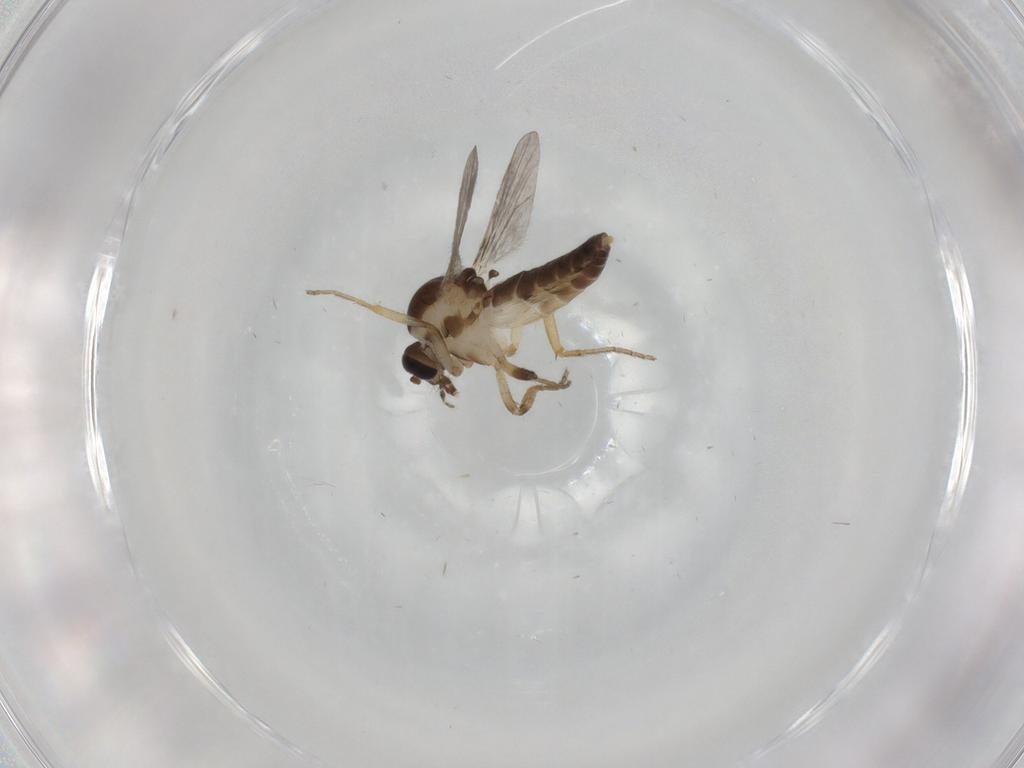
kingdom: Animalia
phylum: Arthropoda
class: Insecta
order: Diptera
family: Ceratopogonidae
